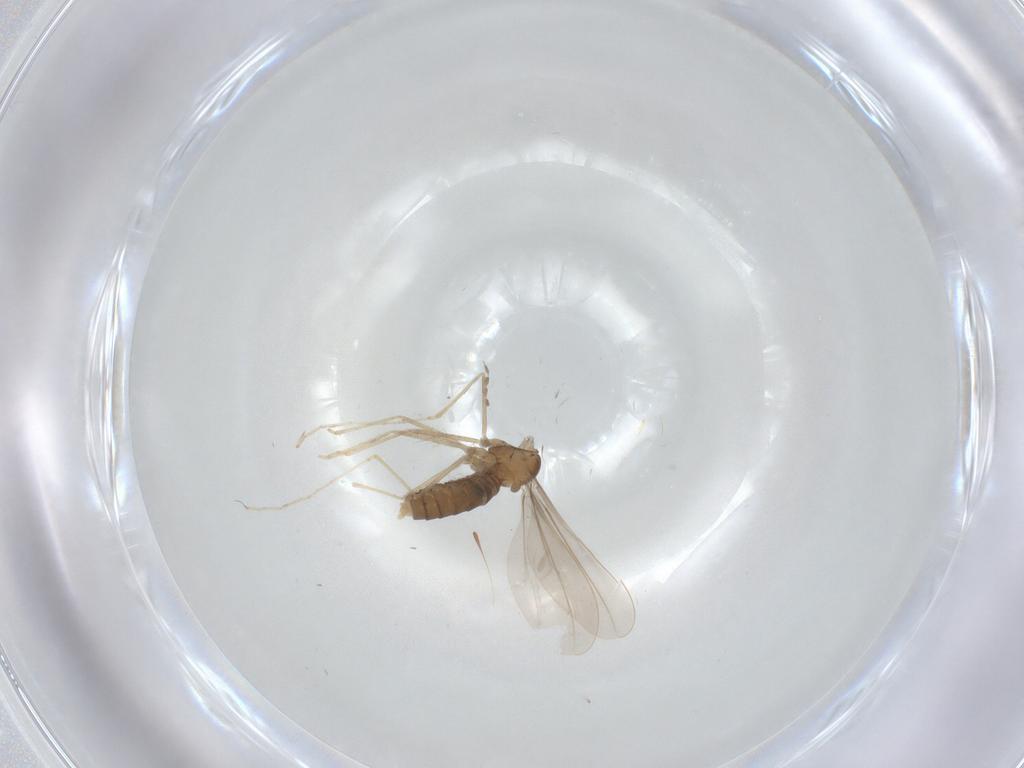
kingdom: Animalia
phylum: Arthropoda
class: Insecta
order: Diptera
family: Cecidomyiidae
